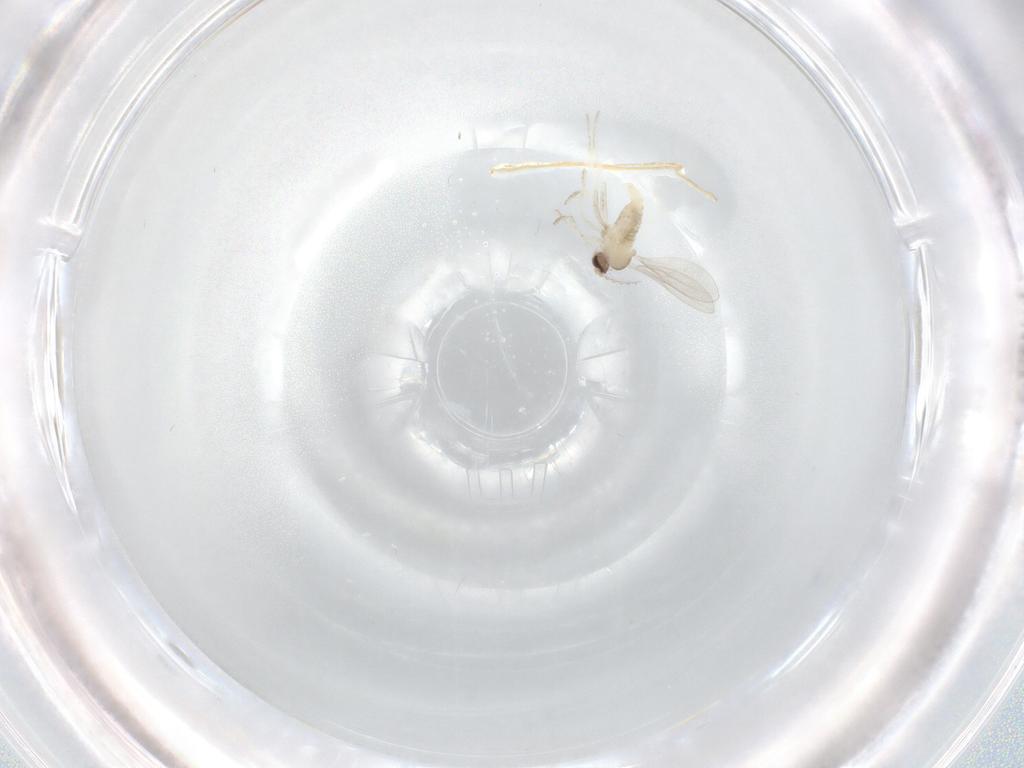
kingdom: Animalia
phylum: Arthropoda
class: Insecta
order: Diptera
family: Cecidomyiidae
